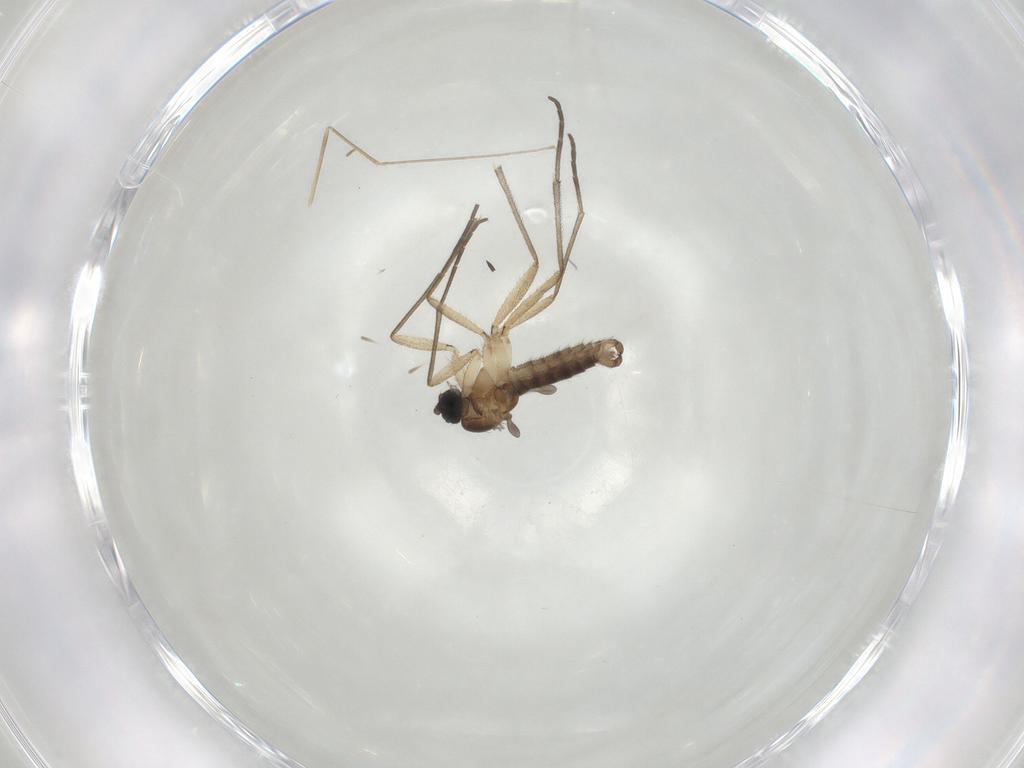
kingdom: Animalia
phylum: Arthropoda
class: Insecta
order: Diptera
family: Sciaridae
